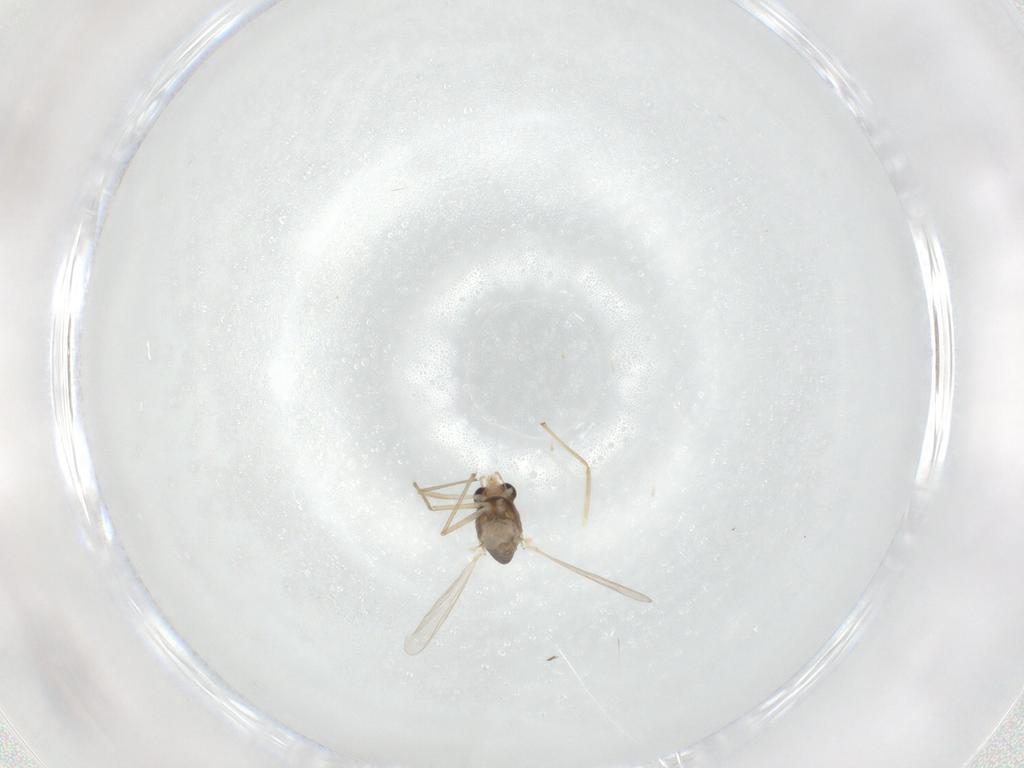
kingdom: Animalia
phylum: Arthropoda
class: Insecta
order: Diptera
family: Chironomidae
